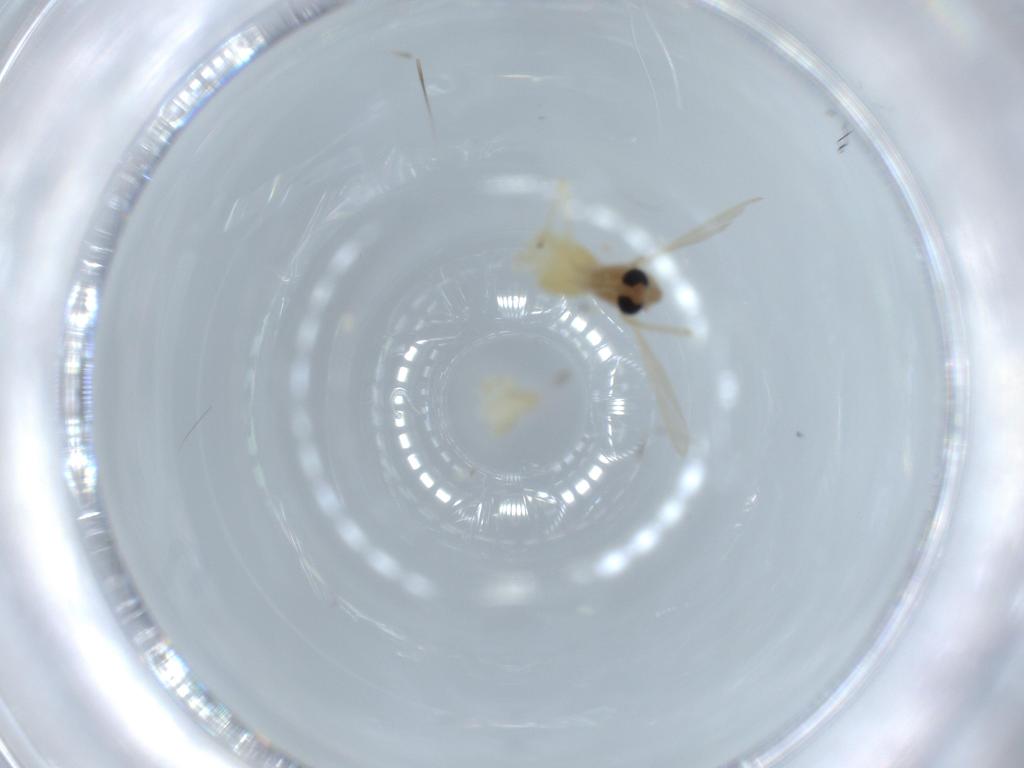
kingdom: Animalia
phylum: Arthropoda
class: Insecta
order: Diptera
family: Chironomidae
